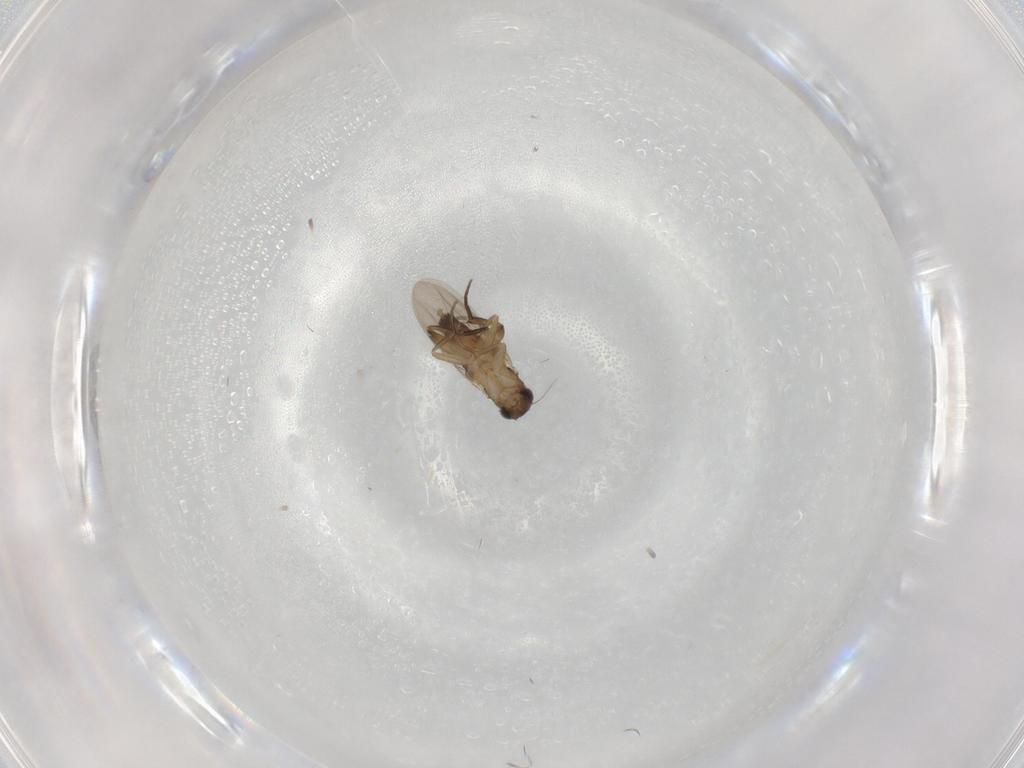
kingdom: Animalia
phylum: Arthropoda
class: Insecta
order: Diptera
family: Phoridae
